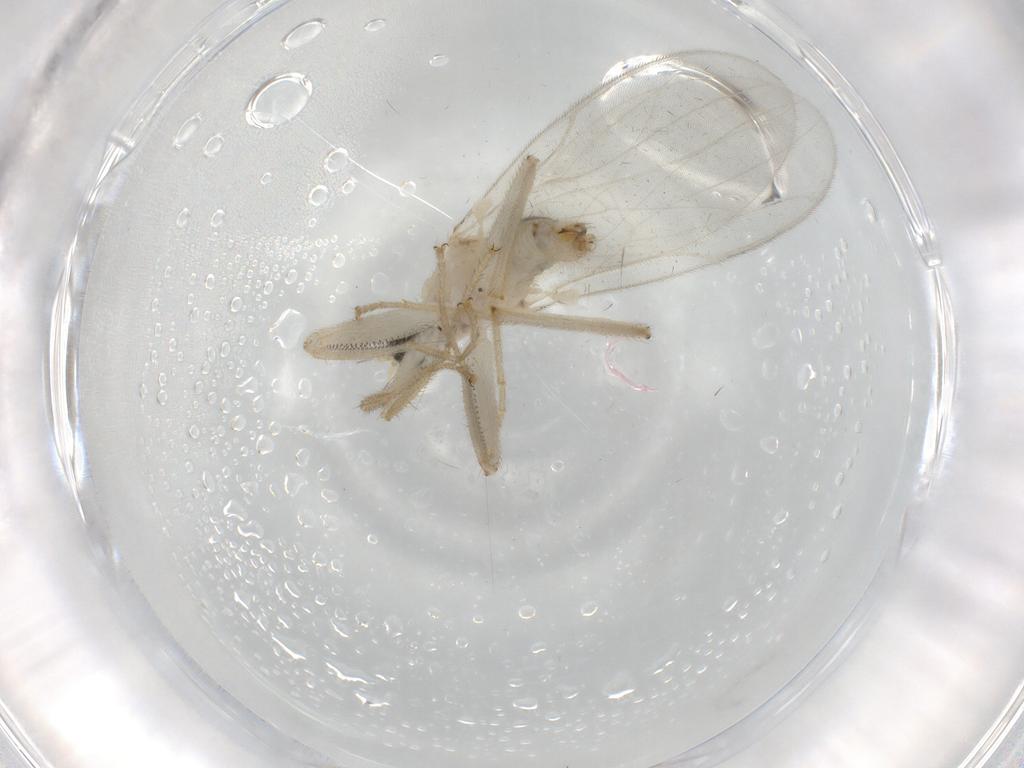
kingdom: Animalia
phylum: Arthropoda
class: Insecta
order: Diptera
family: Hybotidae
